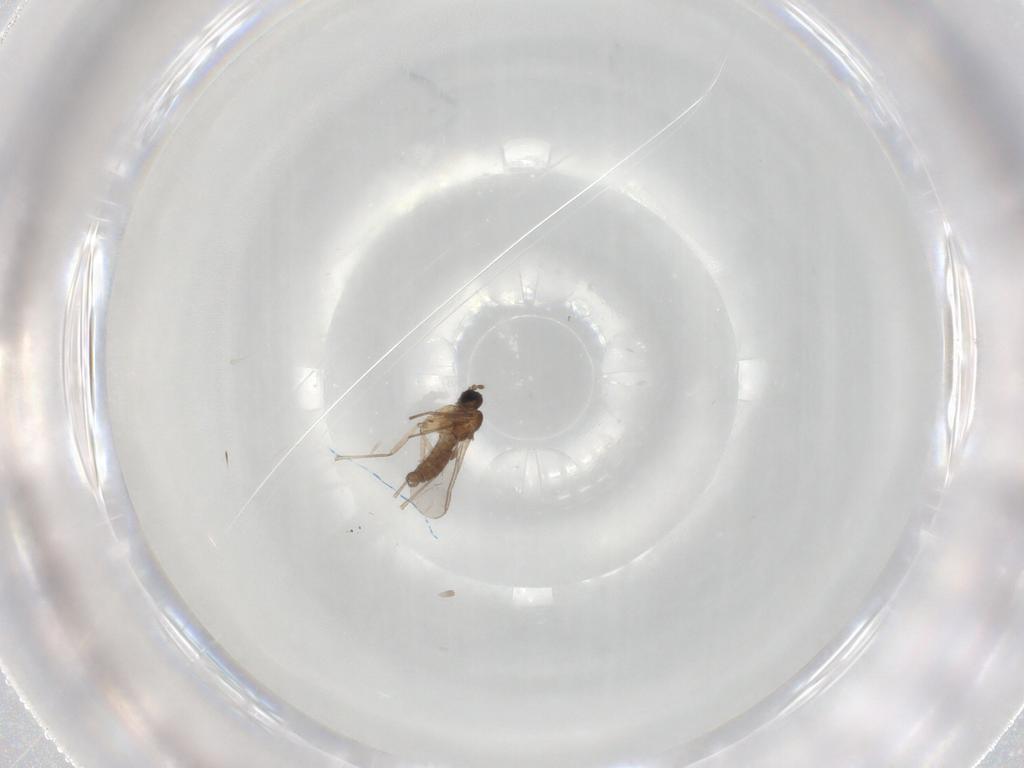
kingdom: Animalia
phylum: Arthropoda
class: Insecta
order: Diptera
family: Sciaridae
